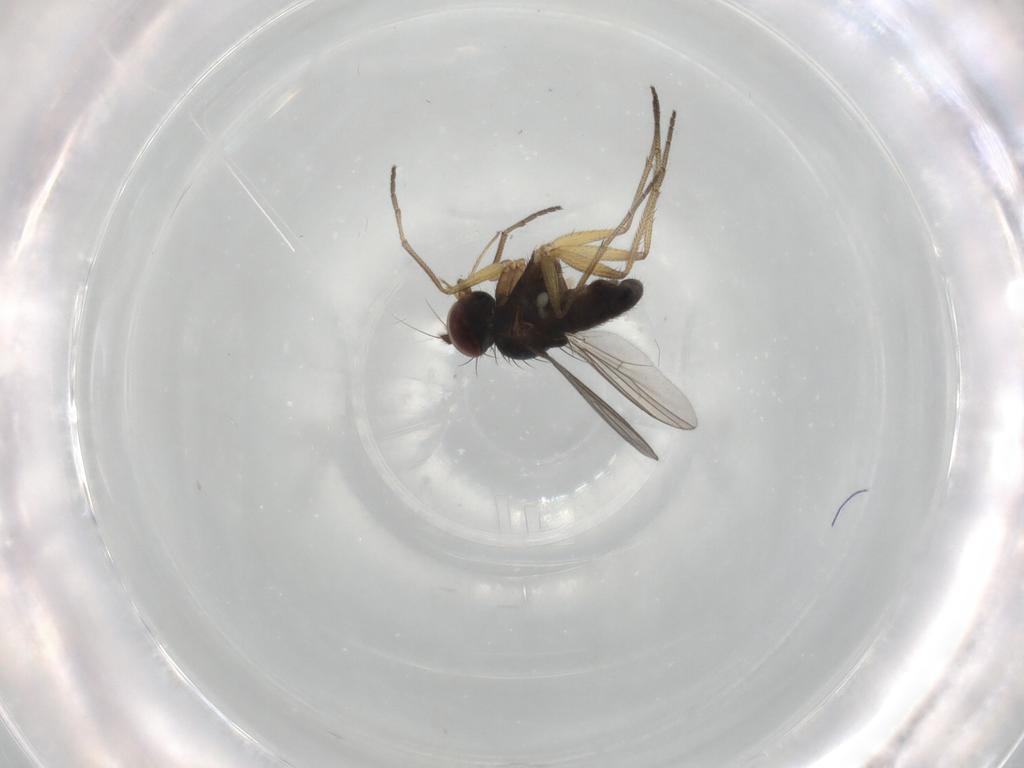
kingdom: Animalia
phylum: Arthropoda
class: Insecta
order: Diptera
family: Dolichopodidae
